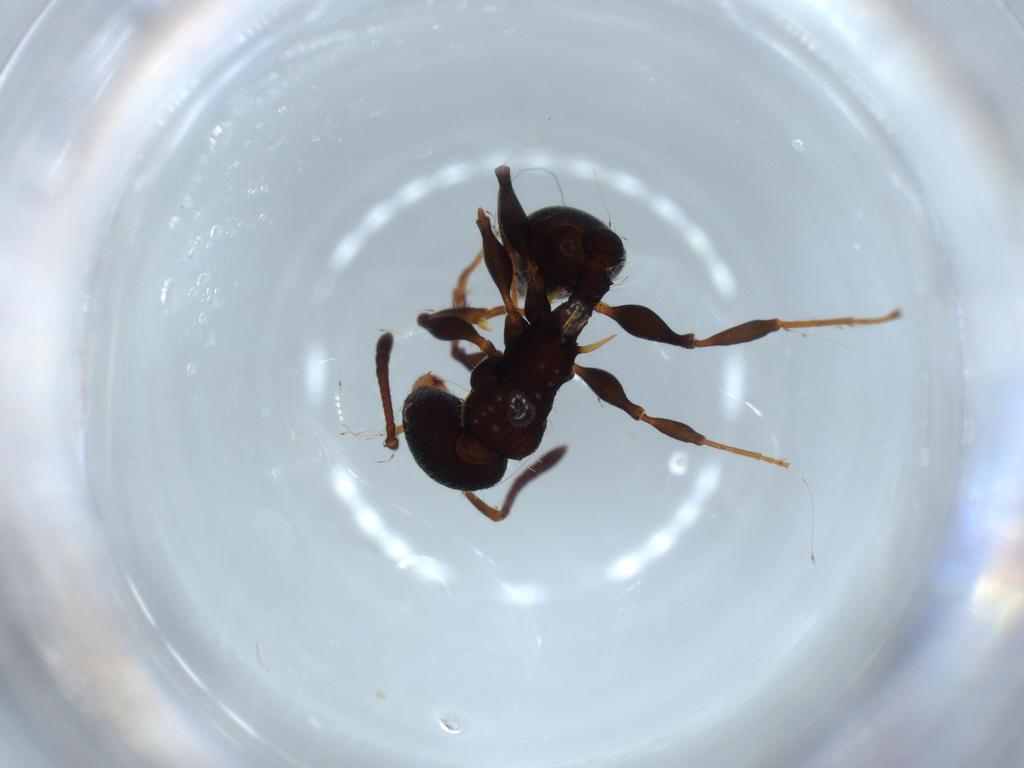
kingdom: Animalia
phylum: Arthropoda
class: Insecta
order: Hymenoptera
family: Formicidae
